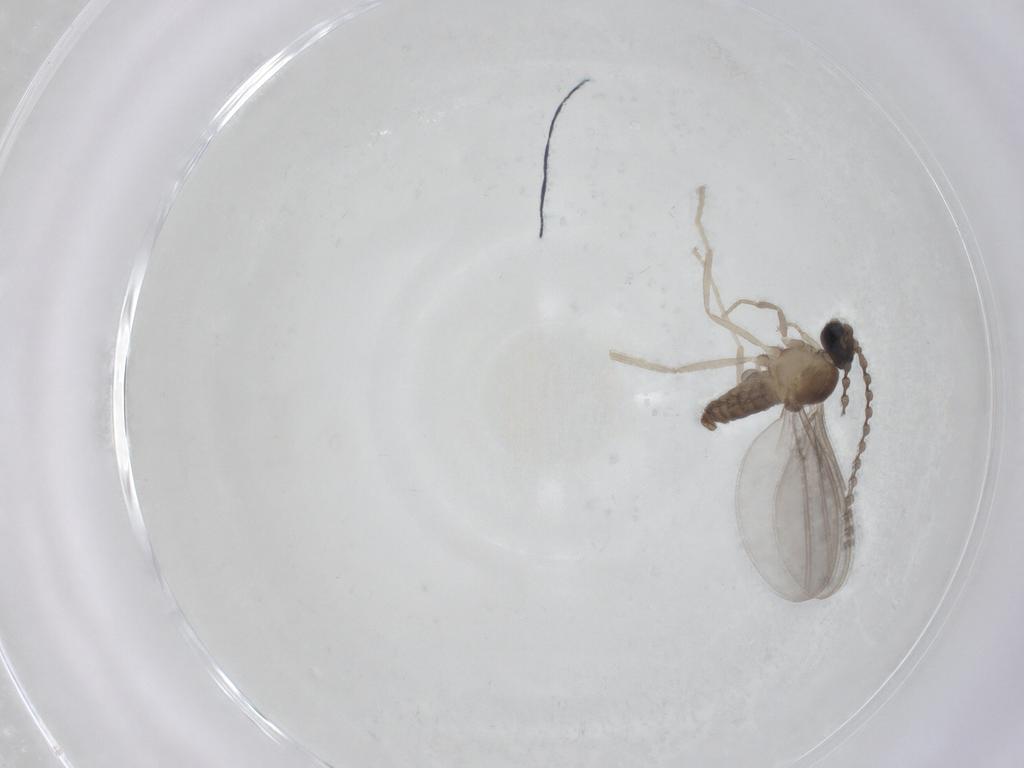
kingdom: Animalia
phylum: Arthropoda
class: Insecta
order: Diptera
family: Cecidomyiidae
